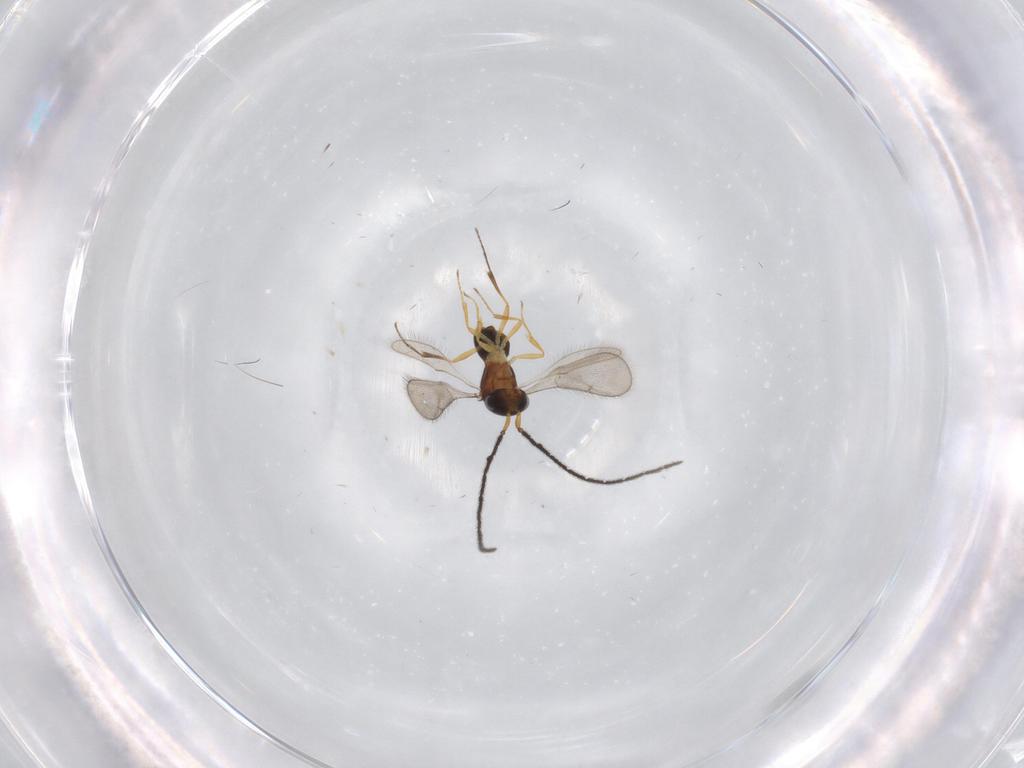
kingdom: Animalia
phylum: Arthropoda
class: Insecta
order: Hymenoptera
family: Scelionidae
